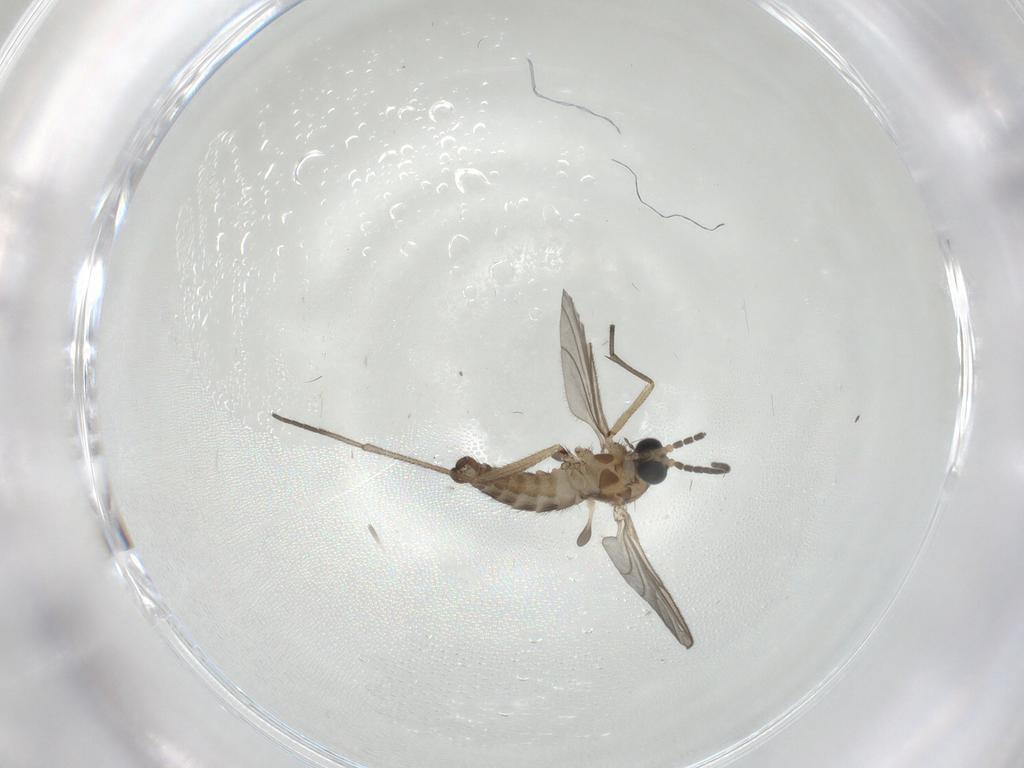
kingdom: Animalia
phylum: Arthropoda
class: Insecta
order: Diptera
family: Sciaridae
